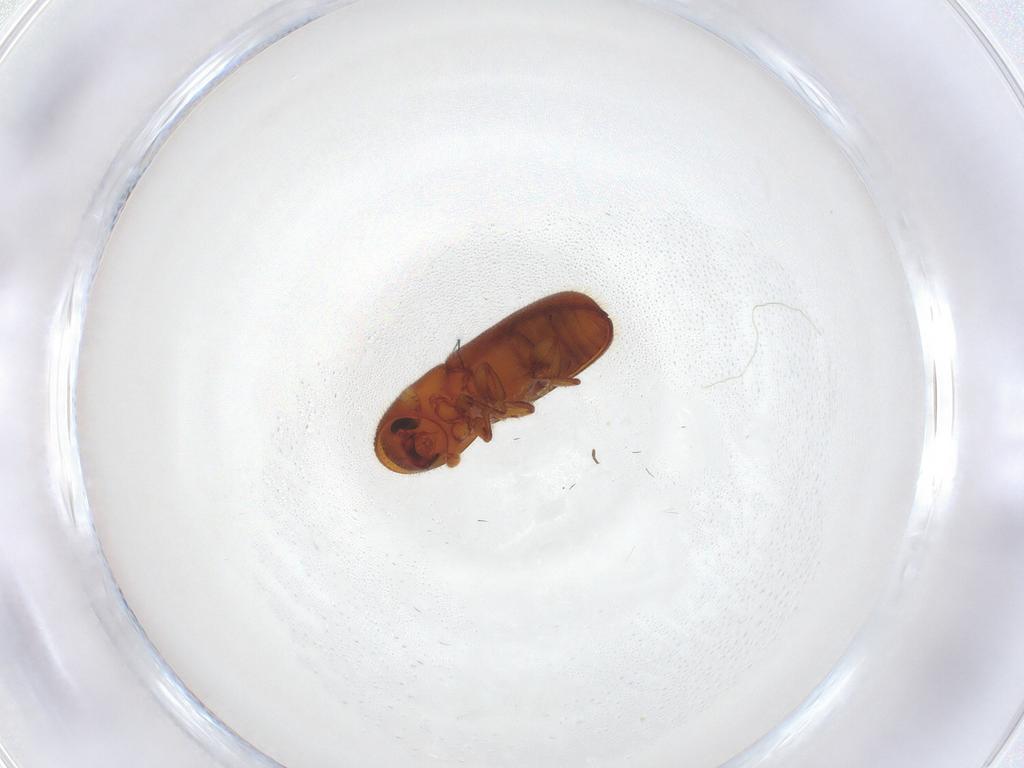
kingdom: Animalia
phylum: Arthropoda
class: Insecta
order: Coleoptera
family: Curculionidae
